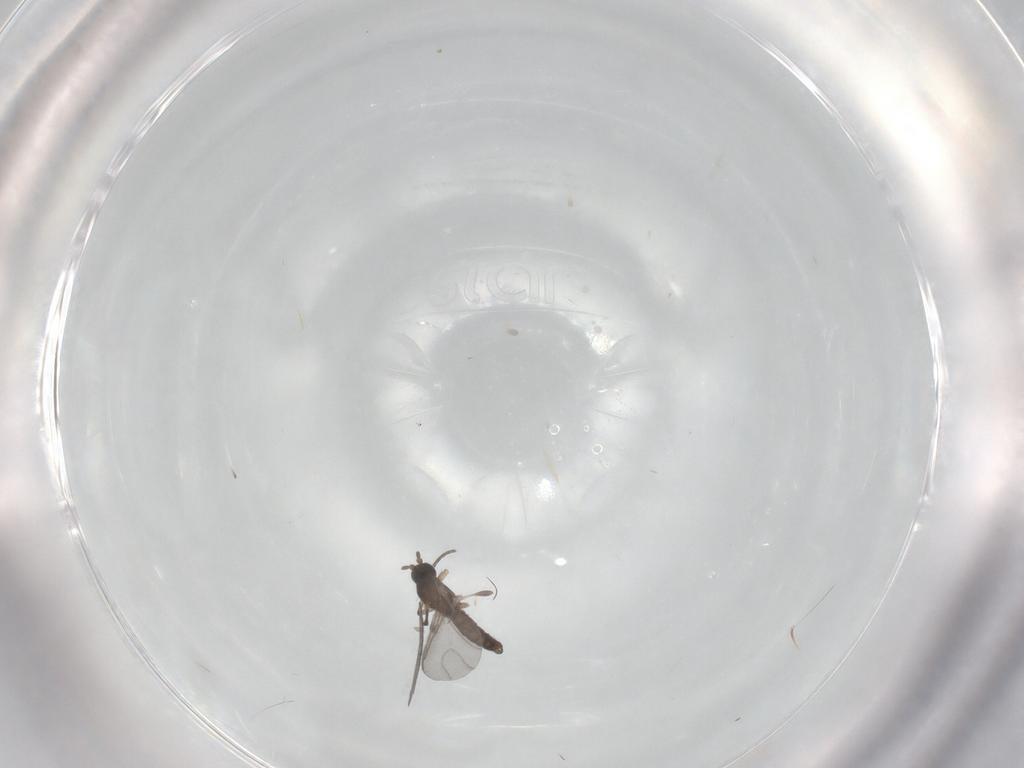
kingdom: Animalia
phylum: Arthropoda
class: Insecta
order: Diptera
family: Sciaridae
